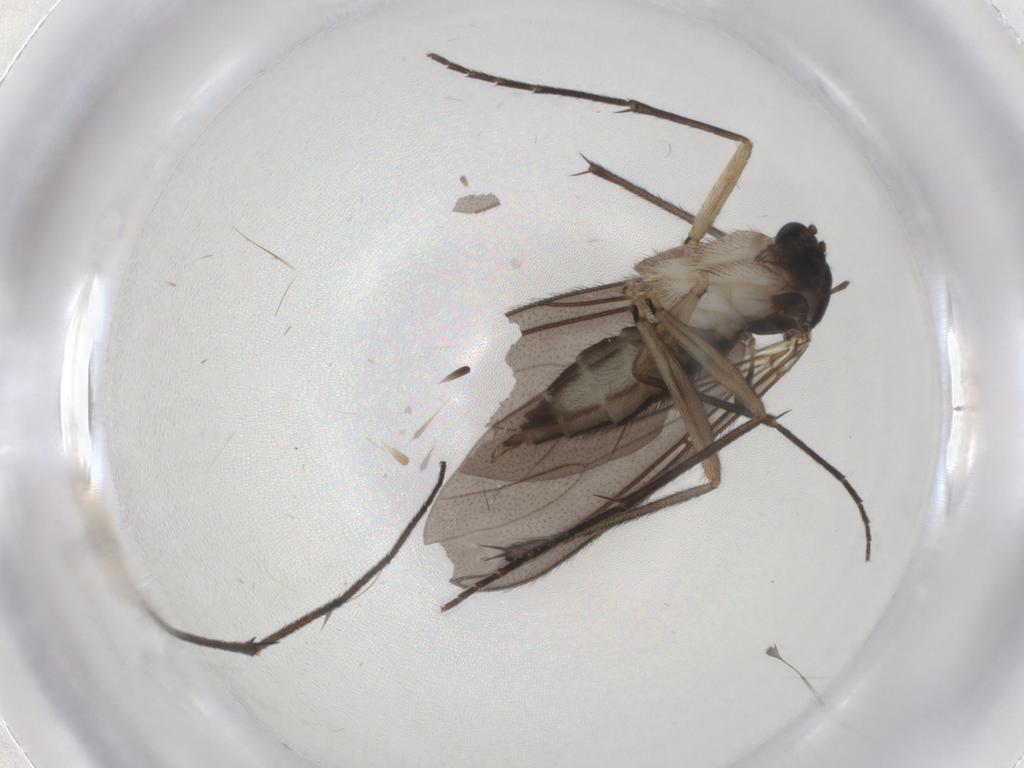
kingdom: Animalia
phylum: Arthropoda
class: Insecta
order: Diptera
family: Sciaridae
